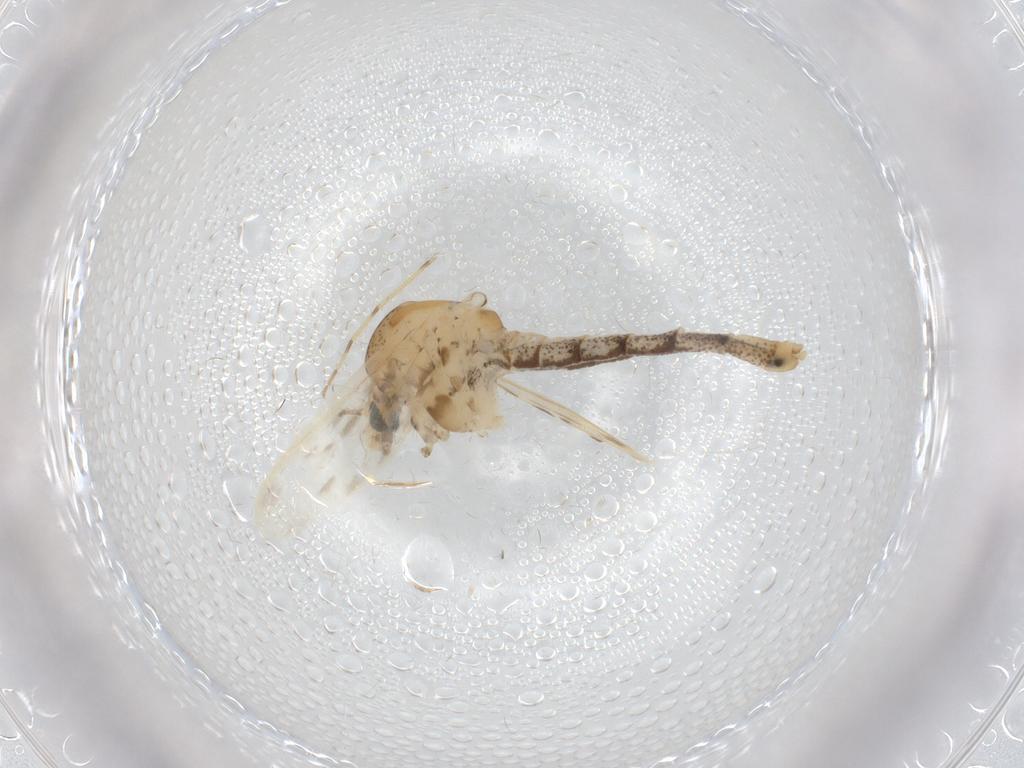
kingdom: Animalia
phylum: Arthropoda
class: Insecta
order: Diptera
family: Chaoboridae
